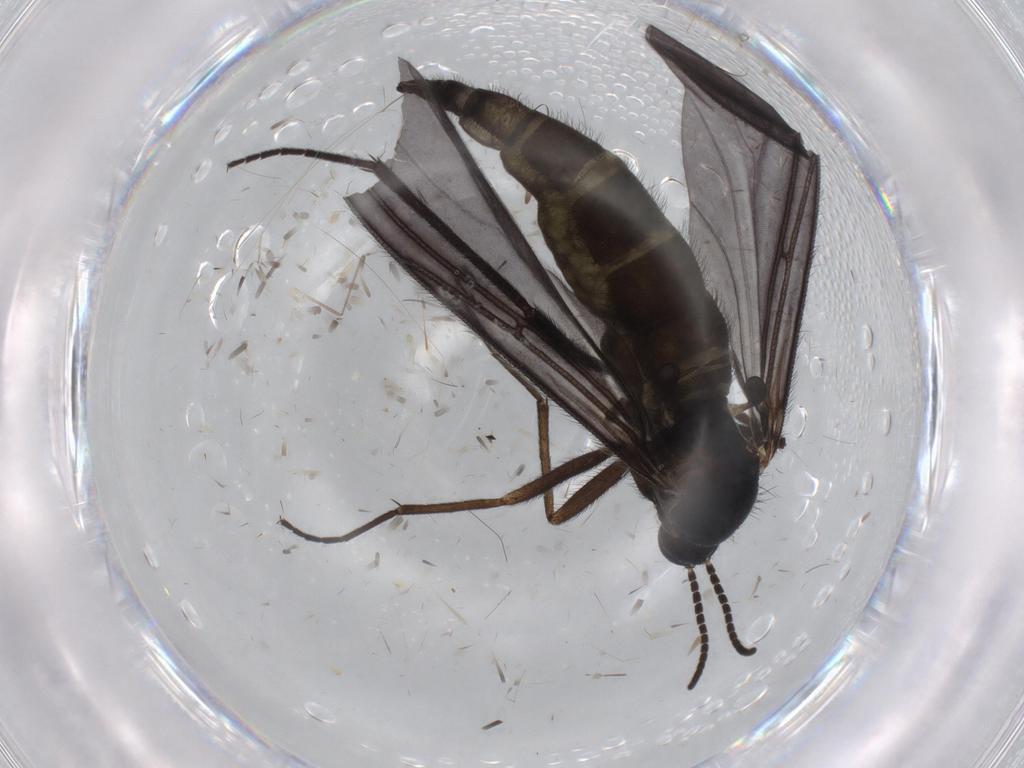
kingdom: Animalia
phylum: Arthropoda
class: Insecta
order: Diptera
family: Sciaridae
